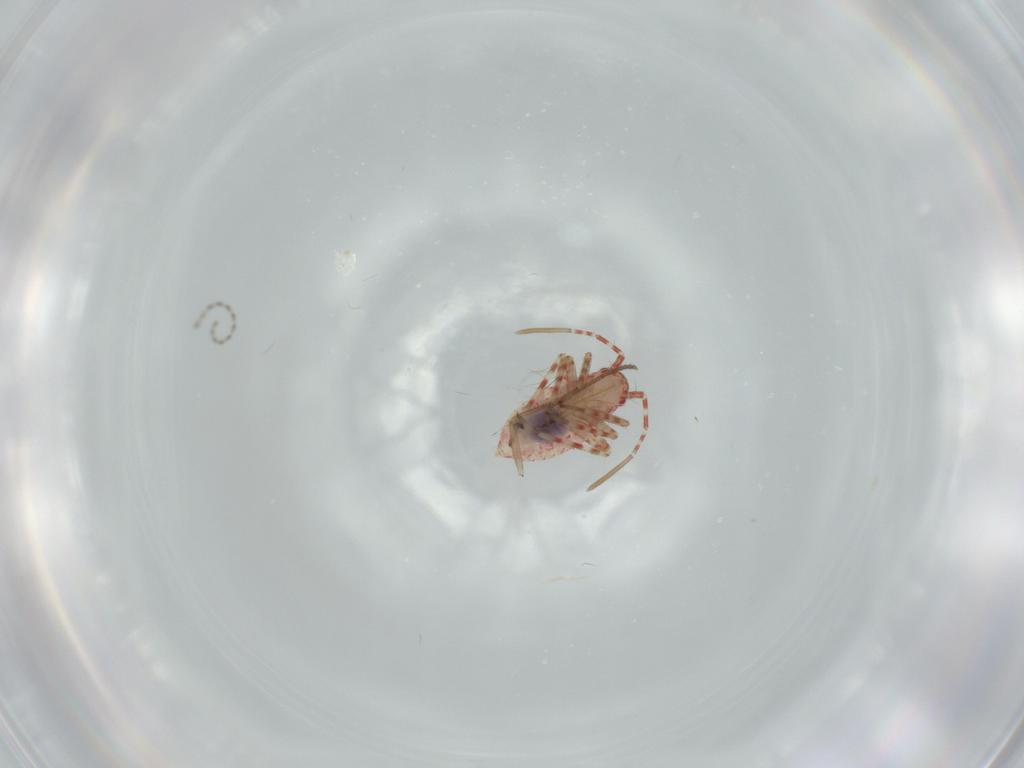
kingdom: Animalia
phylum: Arthropoda
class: Insecta
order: Hemiptera
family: Miridae
